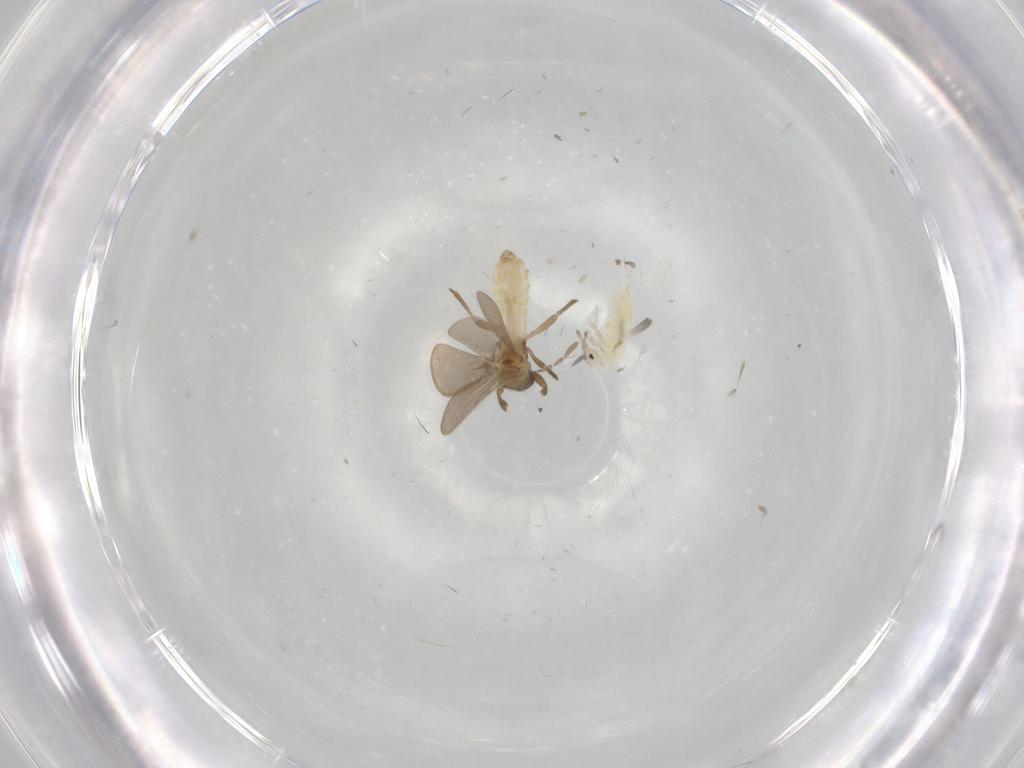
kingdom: Animalia
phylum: Arthropoda
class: Collembola
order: Entomobryomorpha
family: Entomobryidae
